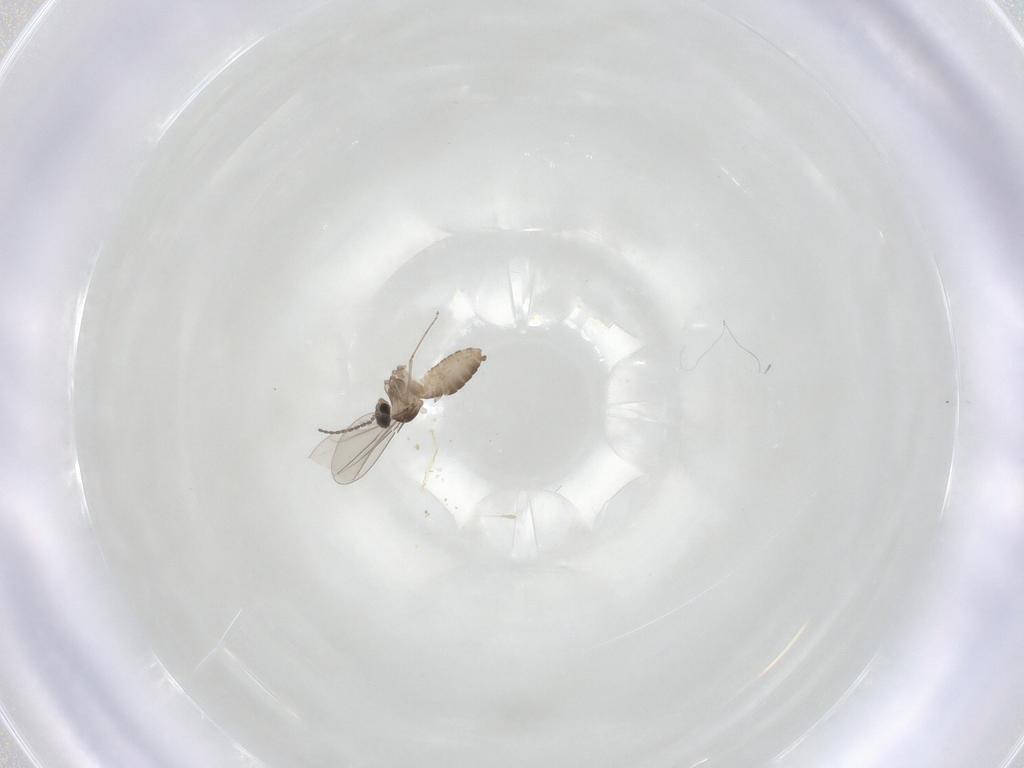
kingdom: Animalia
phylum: Arthropoda
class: Insecta
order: Diptera
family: Cecidomyiidae
